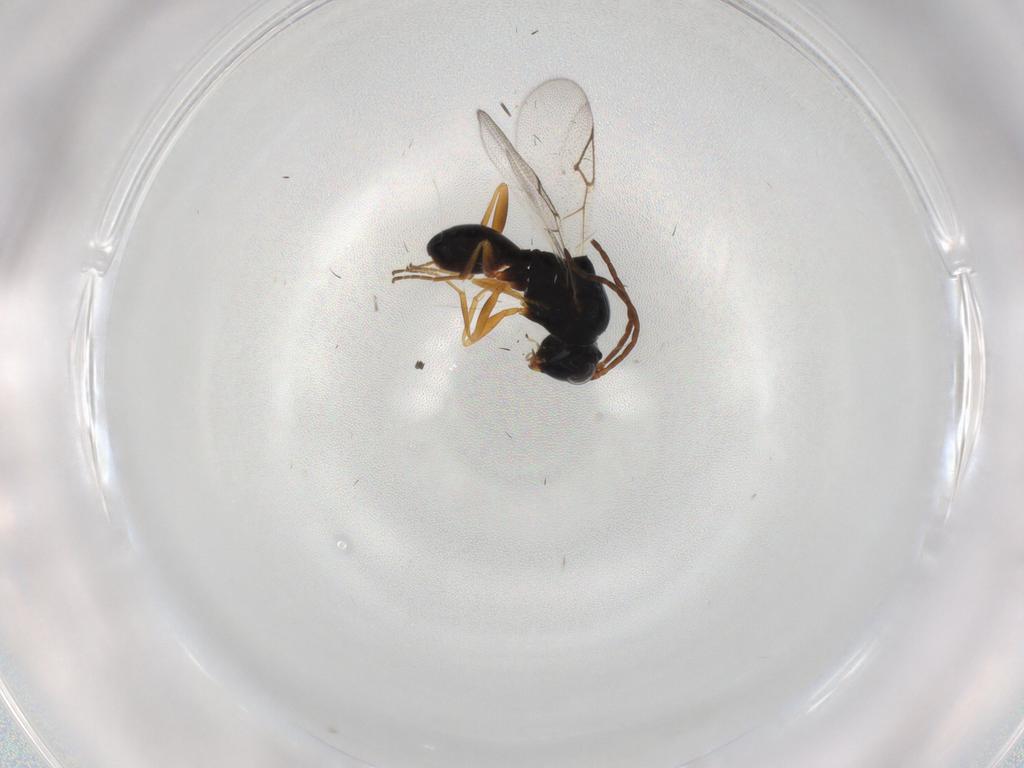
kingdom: Animalia
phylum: Arthropoda
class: Insecta
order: Hymenoptera
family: Figitidae
